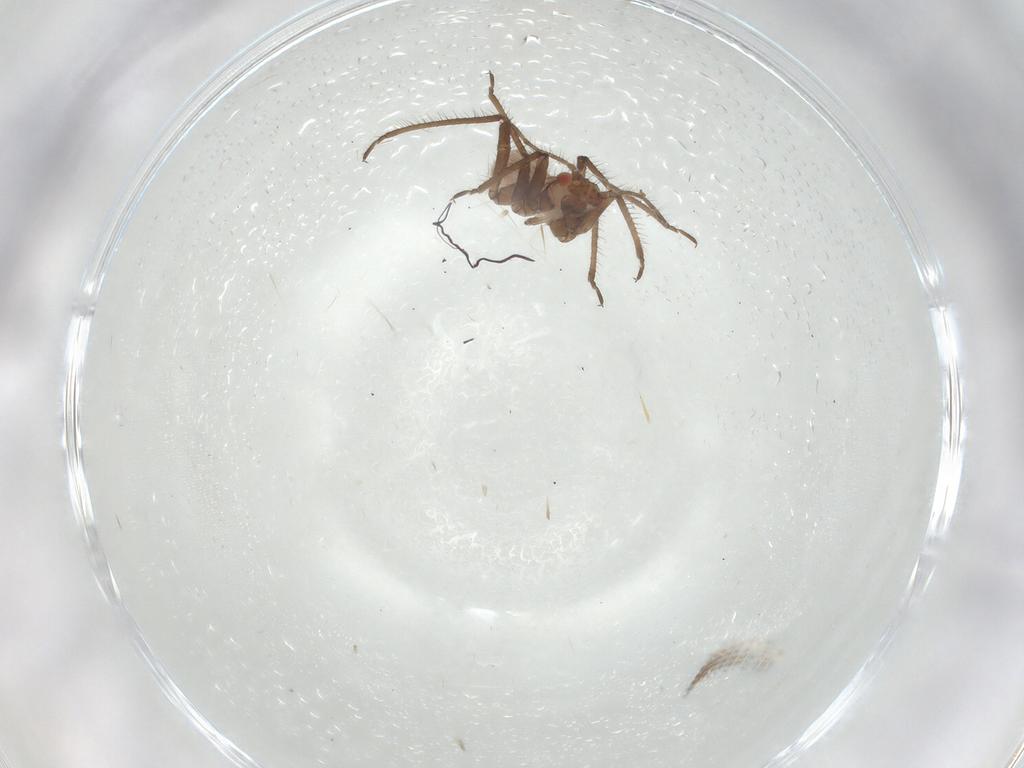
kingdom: Animalia
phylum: Arthropoda
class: Insecta
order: Hemiptera
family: Aphididae
